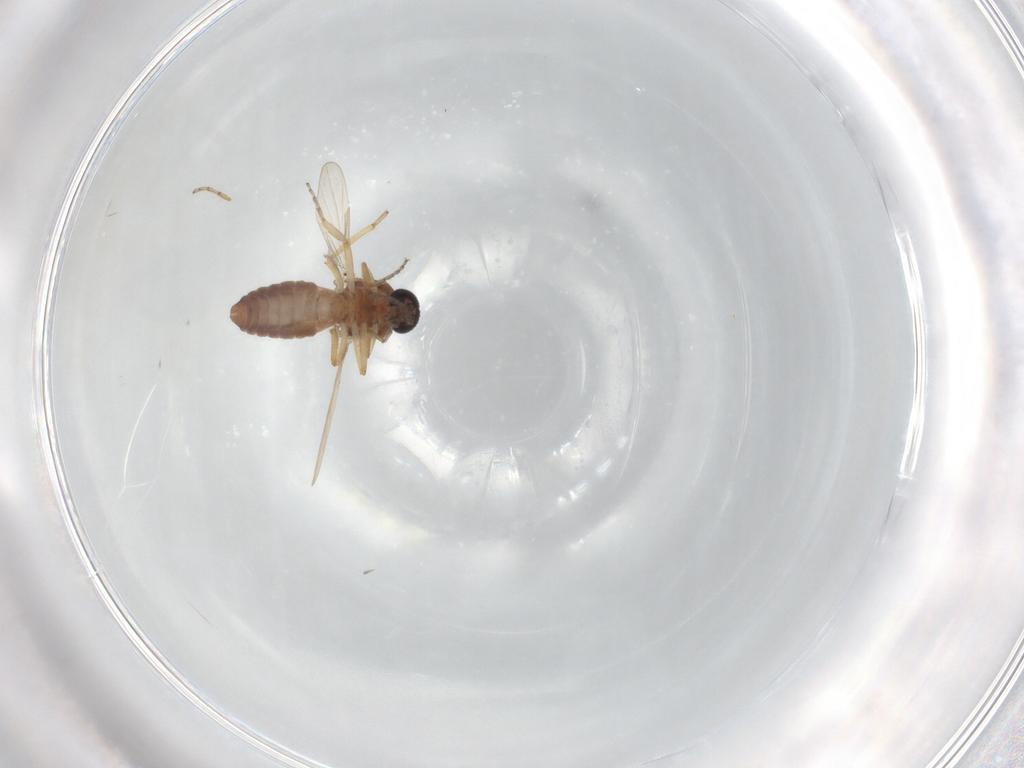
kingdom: Animalia
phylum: Arthropoda
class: Insecta
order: Diptera
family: Ceratopogonidae
